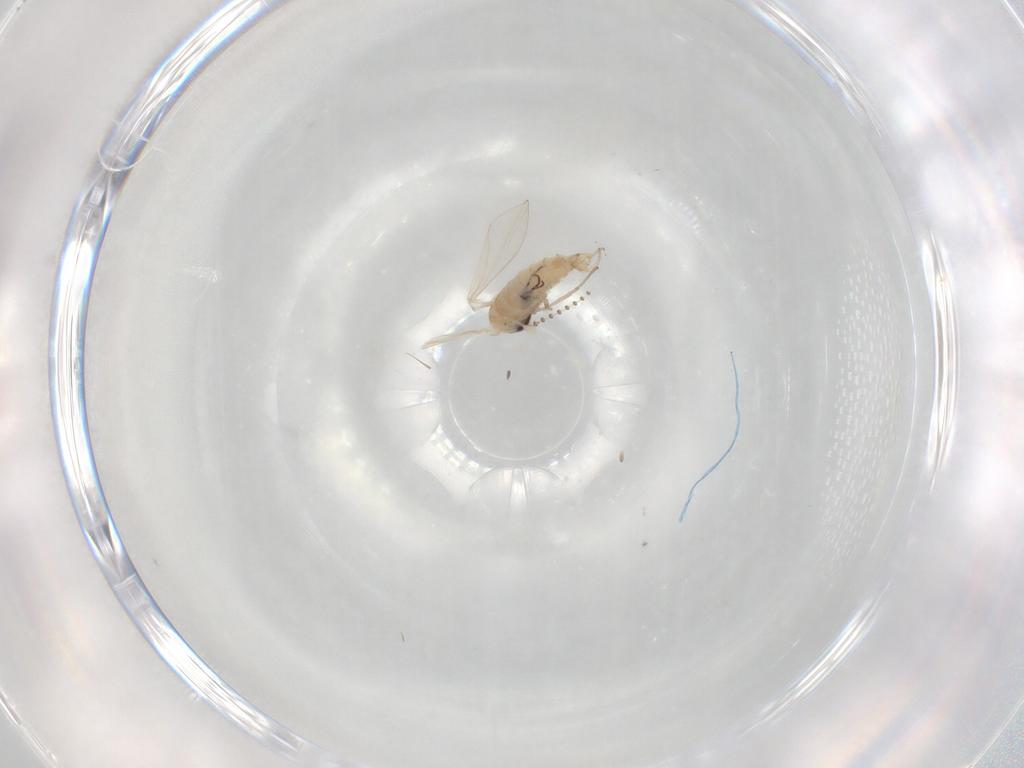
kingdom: Animalia
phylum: Arthropoda
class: Insecta
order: Diptera
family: Psychodidae
